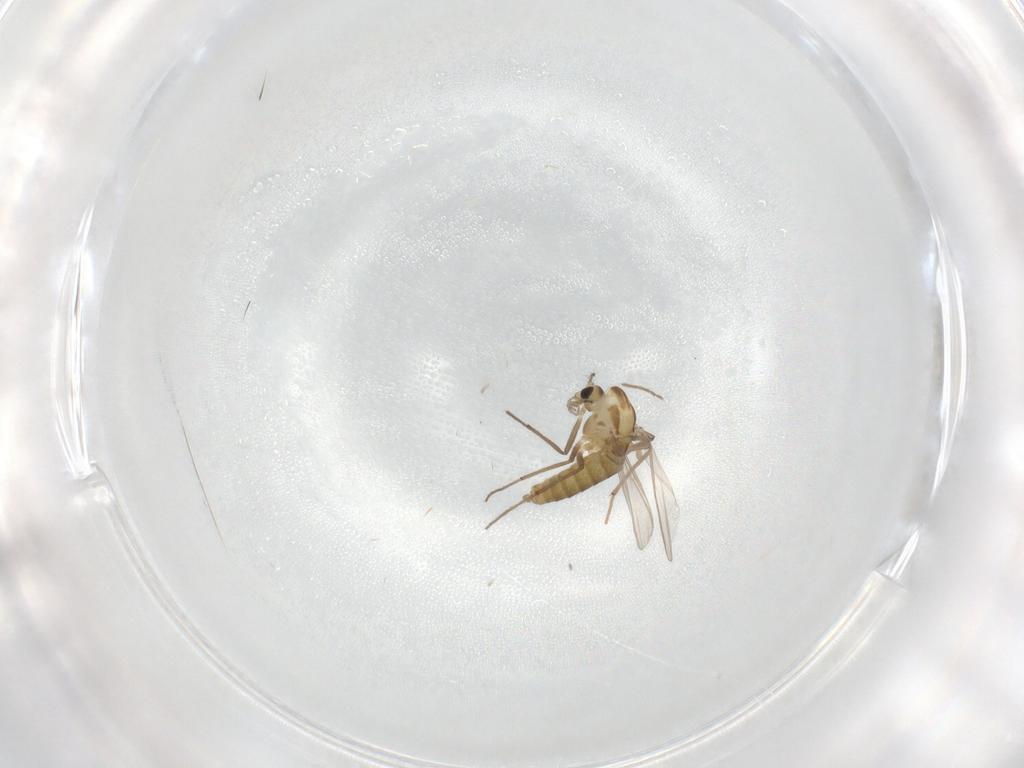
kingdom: Animalia
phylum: Arthropoda
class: Insecta
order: Diptera
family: Chironomidae
